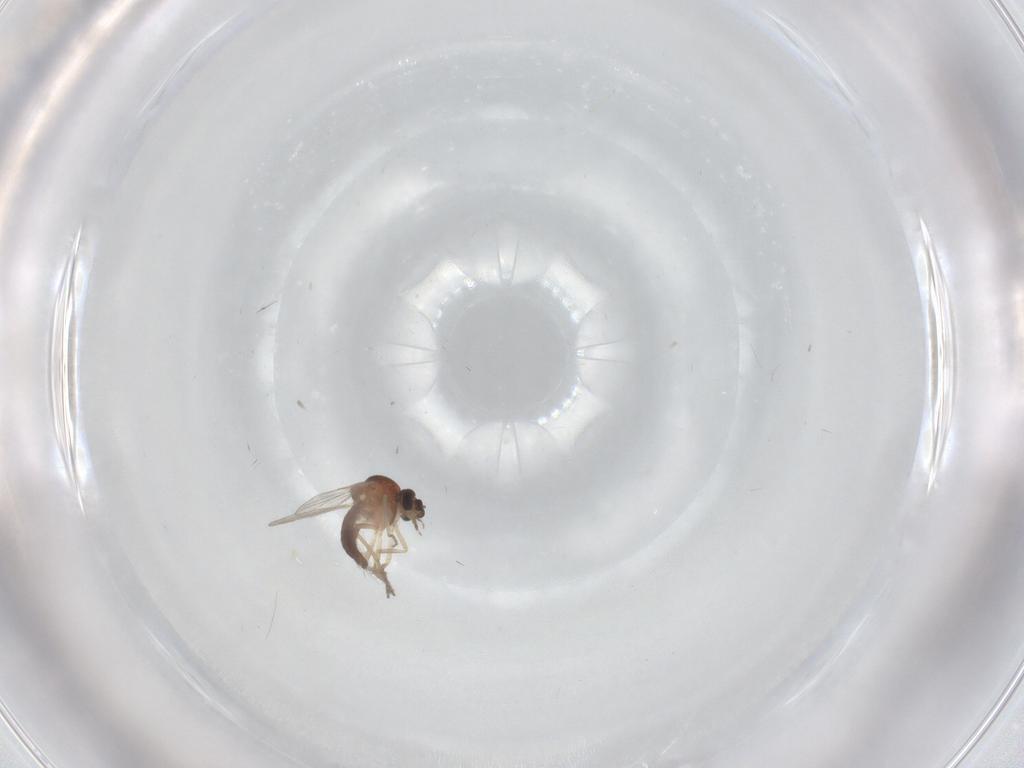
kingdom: Animalia
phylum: Arthropoda
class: Insecta
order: Diptera
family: Ceratopogonidae
